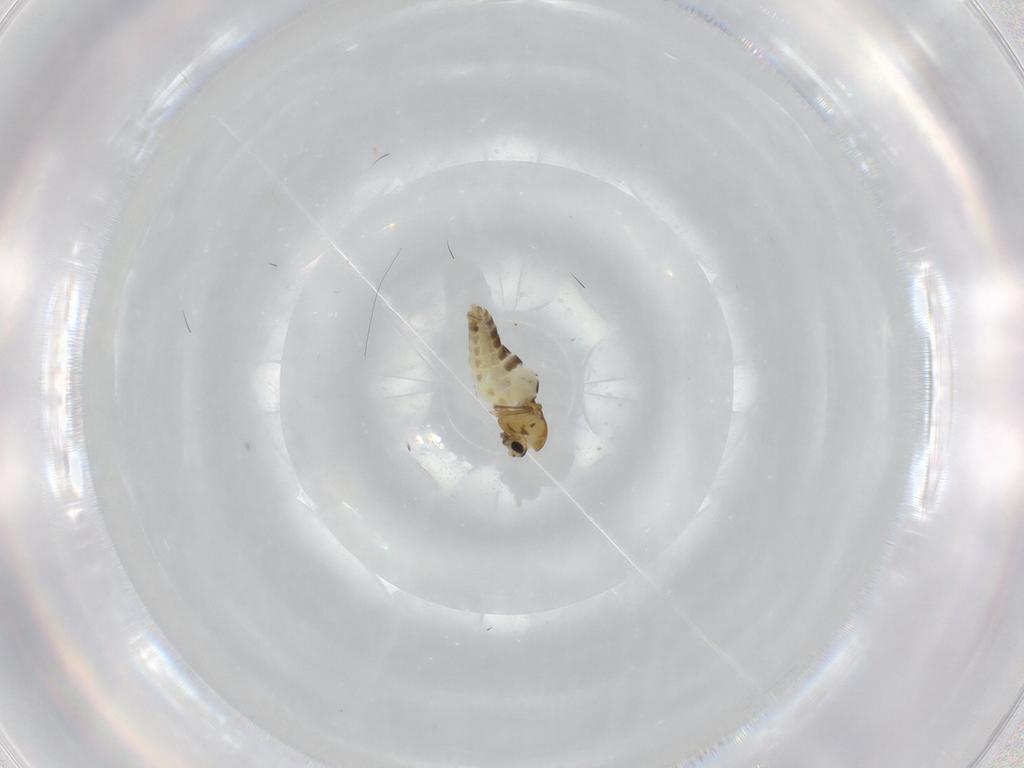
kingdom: Animalia
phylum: Arthropoda
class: Insecta
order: Diptera
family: Chironomidae
